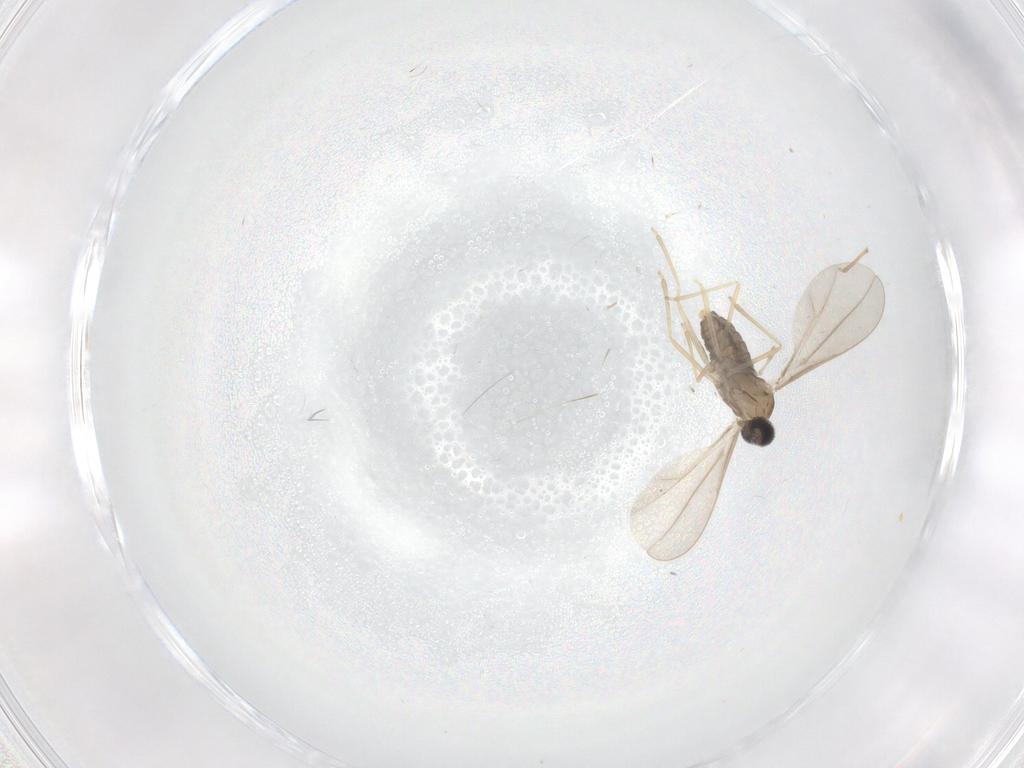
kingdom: Animalia
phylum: Arthropoda
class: Insecta
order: Diptera
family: Cecidomyiidae
